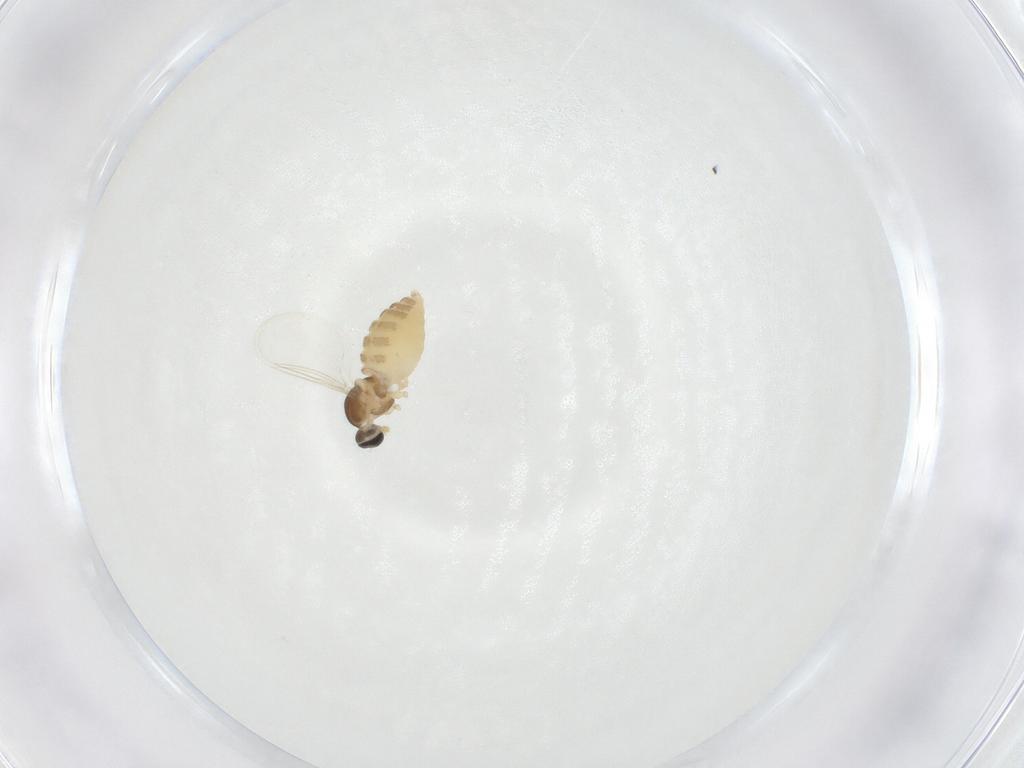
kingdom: Animalia
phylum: Arthropoda
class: Insecta
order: Diptera
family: Cecidomyiidae
